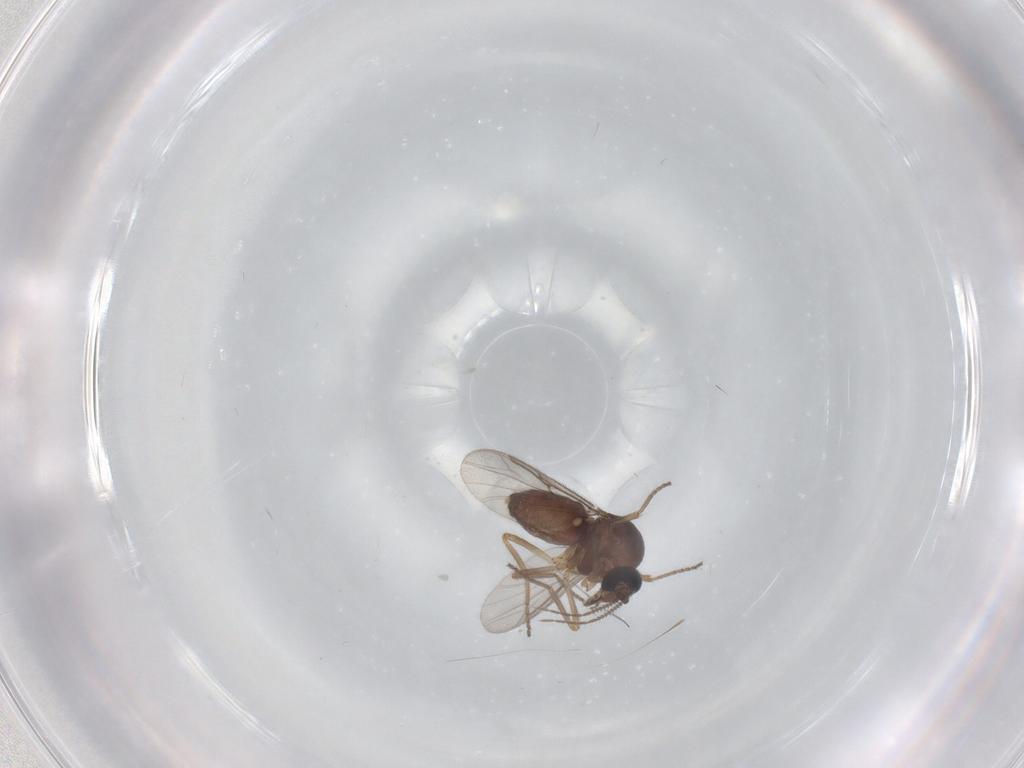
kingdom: Animalia
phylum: Arthropoda
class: Insecta
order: Diptera
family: Ceratopogonidae
